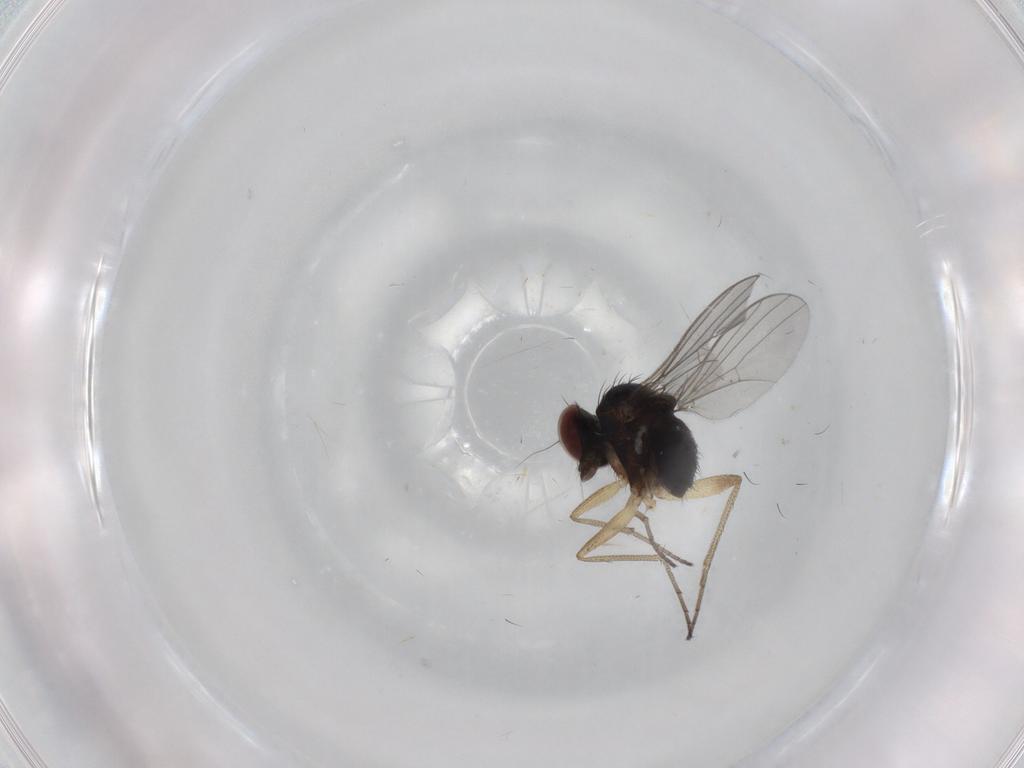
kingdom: Animalia
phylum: Arthropoda
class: Insecta
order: Diptera
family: Dolichopodidae
